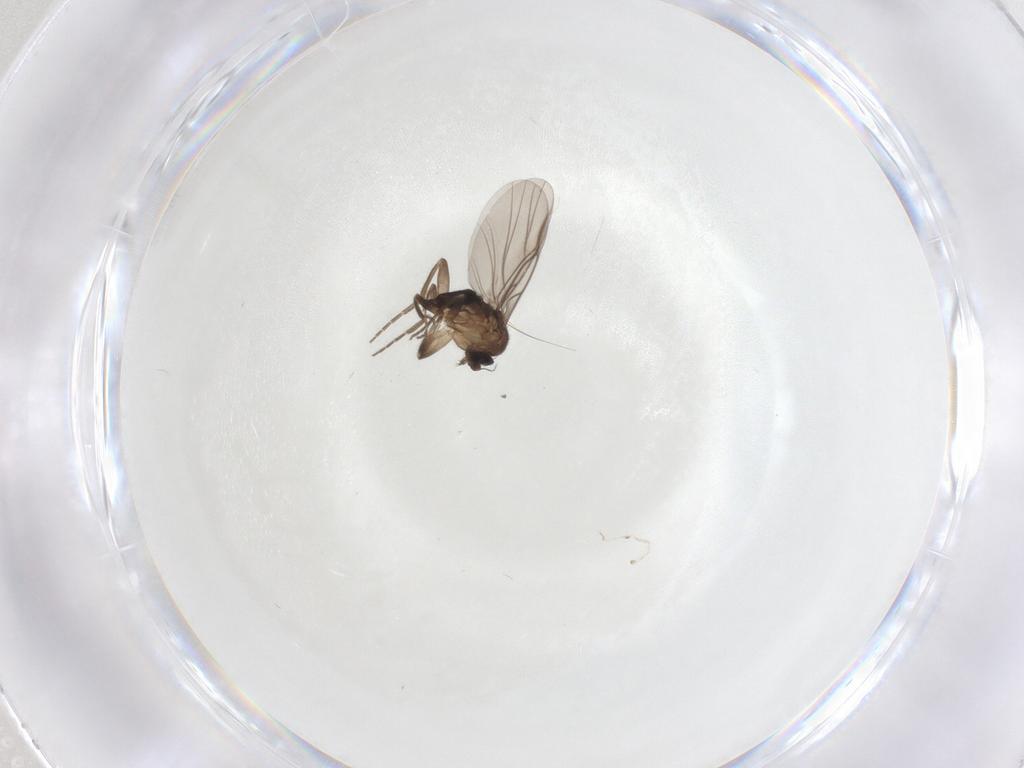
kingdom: Animalia
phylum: Arthropoda
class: Insecta
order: Diptera
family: Phoridae
